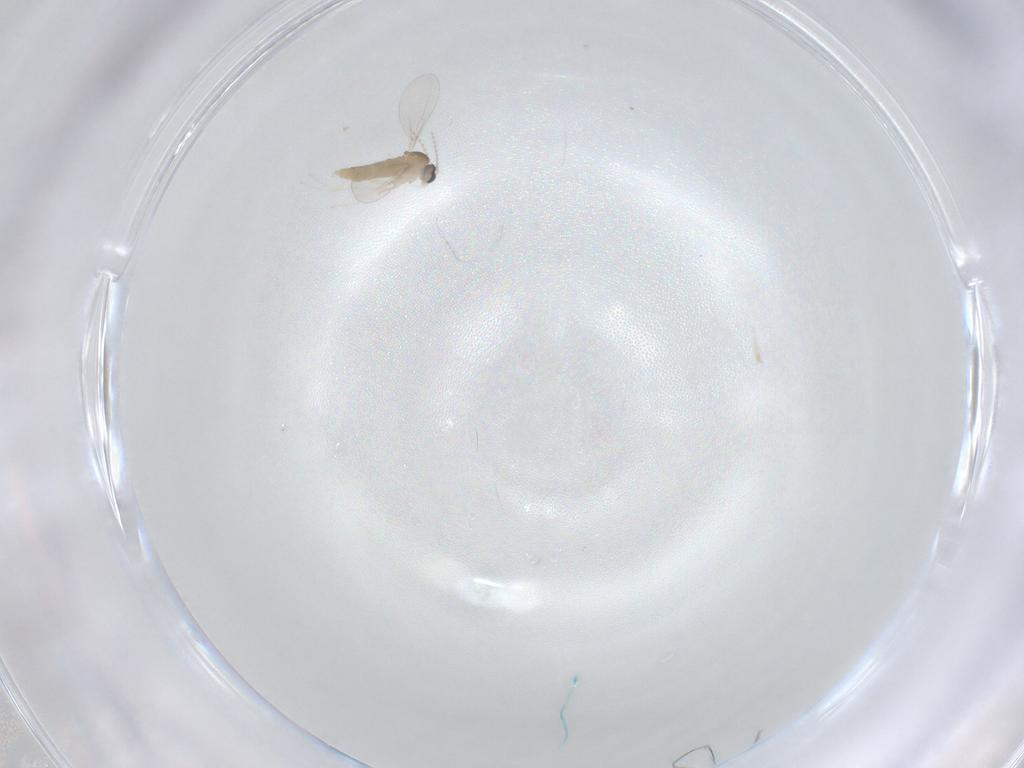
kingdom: Animalia
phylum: Arthropoda
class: Insecta
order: Diptera
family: Cecidomyiidae
